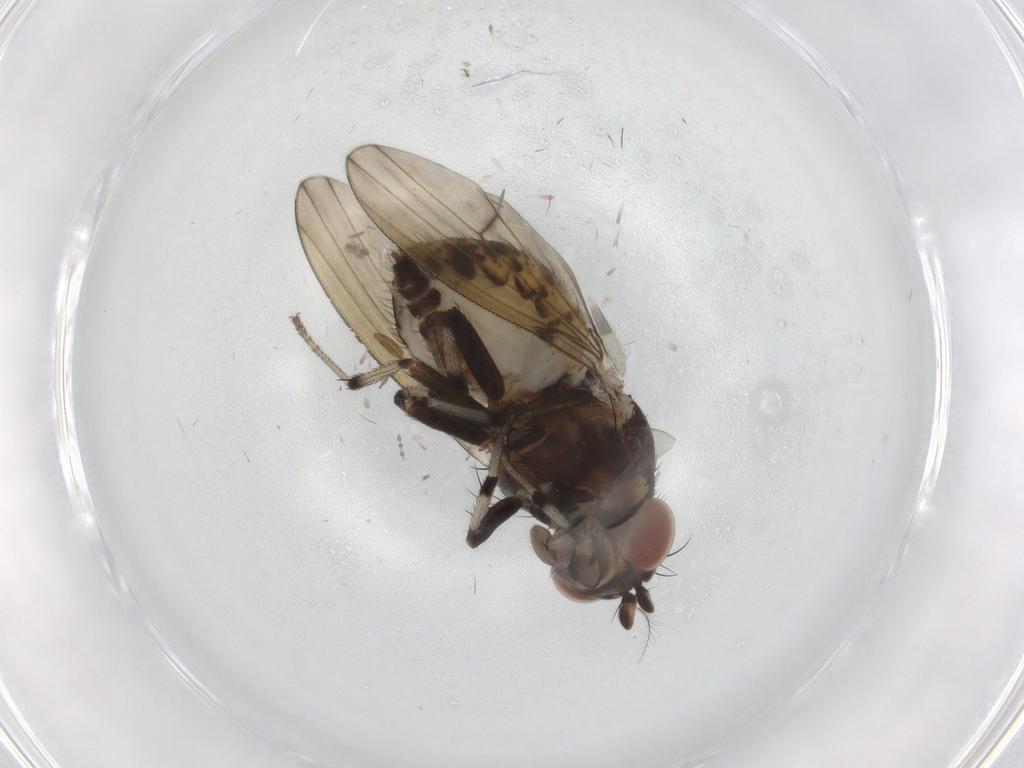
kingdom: Animalia
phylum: Arthropoda
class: Insecta
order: Diptera
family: Cecidomyiidae
